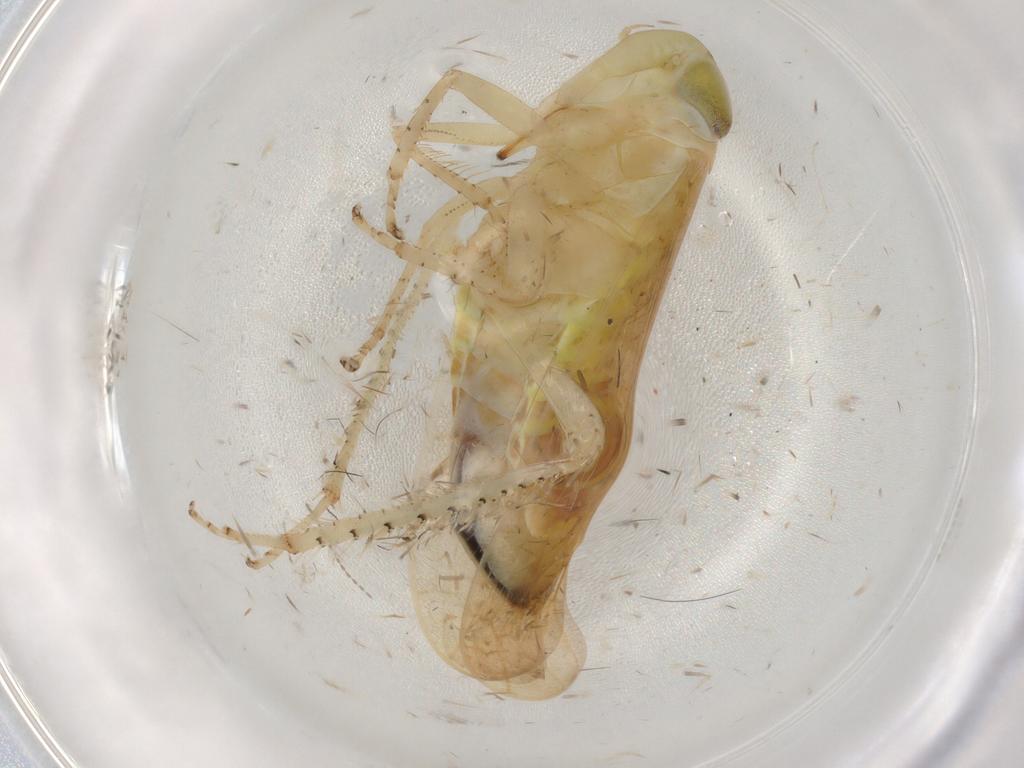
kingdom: Animalia
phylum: Arthropoda
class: Insecta
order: Hemiptera
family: Cicadellidae
